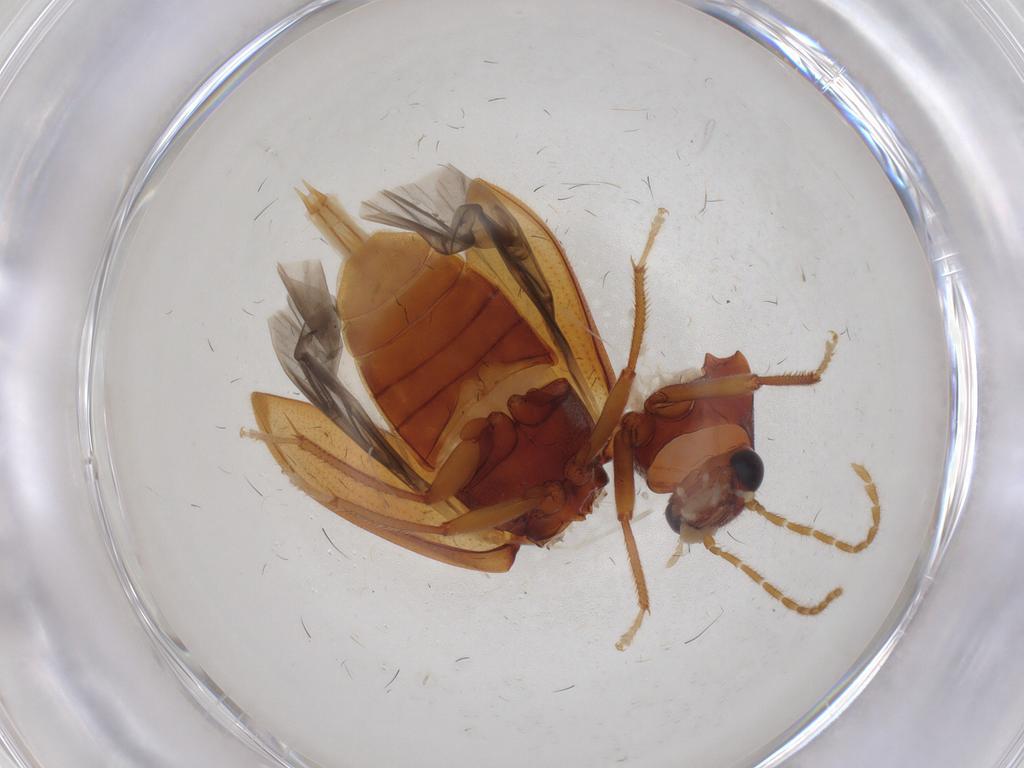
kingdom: Animalia
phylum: Arthropoda
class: Insecta
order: Coleoptera
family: Ptilodactylidae
